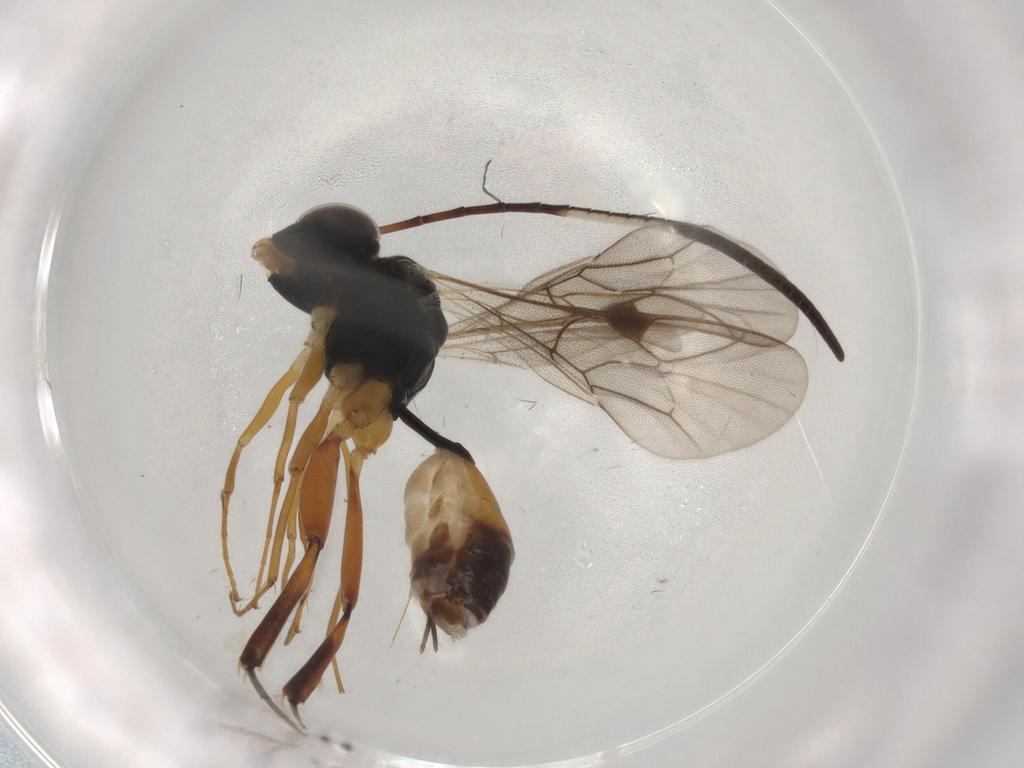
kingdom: Animalia
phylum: Arthropoda
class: Insecta
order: Hymenoptera
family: Ichneumonidae
